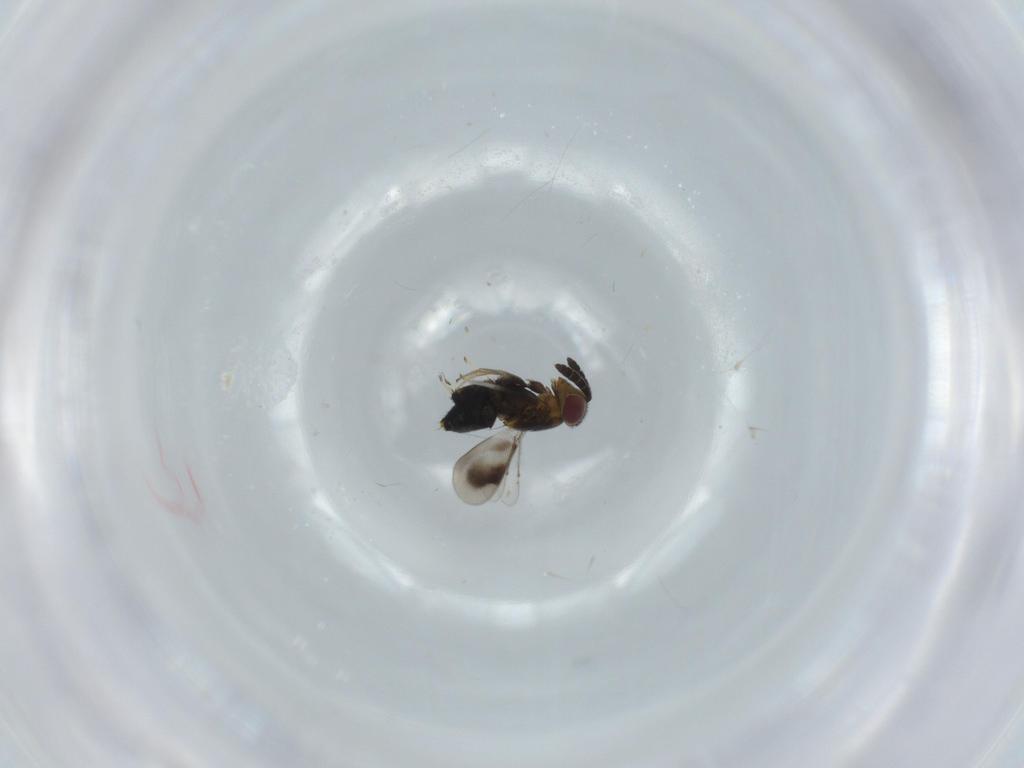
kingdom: Animalia
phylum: Arthropoda
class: Insecta
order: Hymenoptera
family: Aphelinidae
